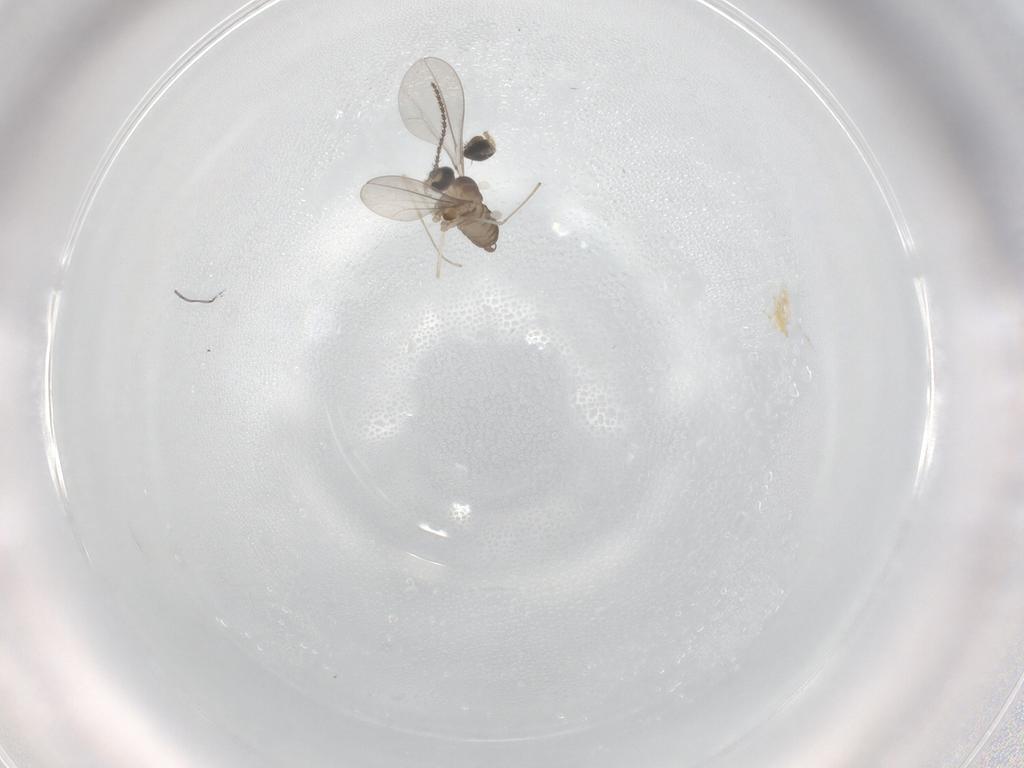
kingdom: Animalia
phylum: Arthropoda
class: Insecta
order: Diptera
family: Cecidomyiidae
